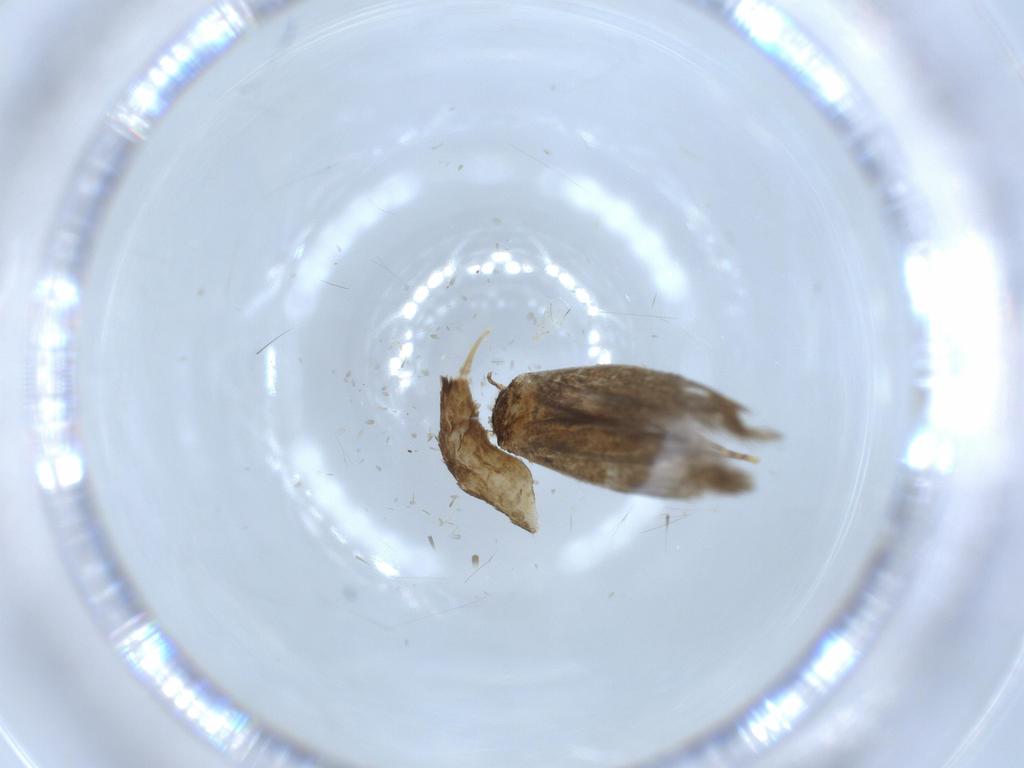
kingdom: Animalia
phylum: Arthropoda
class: Insecta
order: Lepidoptera
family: Tineidae
